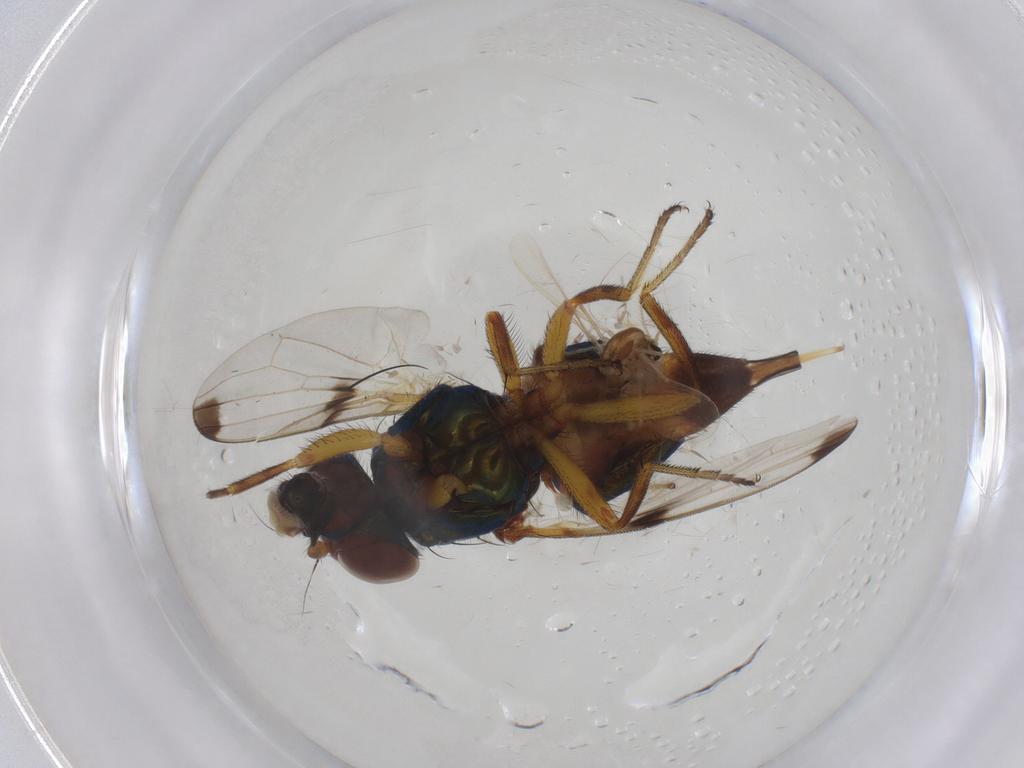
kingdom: Animalia
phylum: Arthropoda
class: Insecta
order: Diptera
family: Ulidiidae
